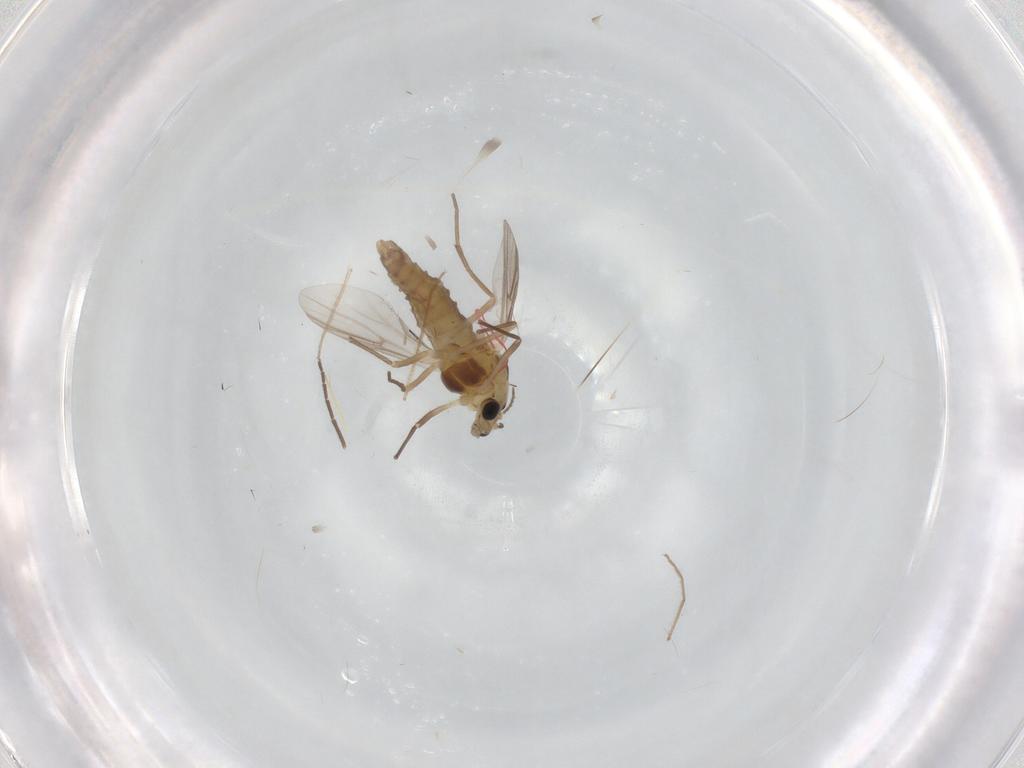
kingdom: Animalia
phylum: Arthropoda
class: Insecta
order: Diptera
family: Chironomidae
